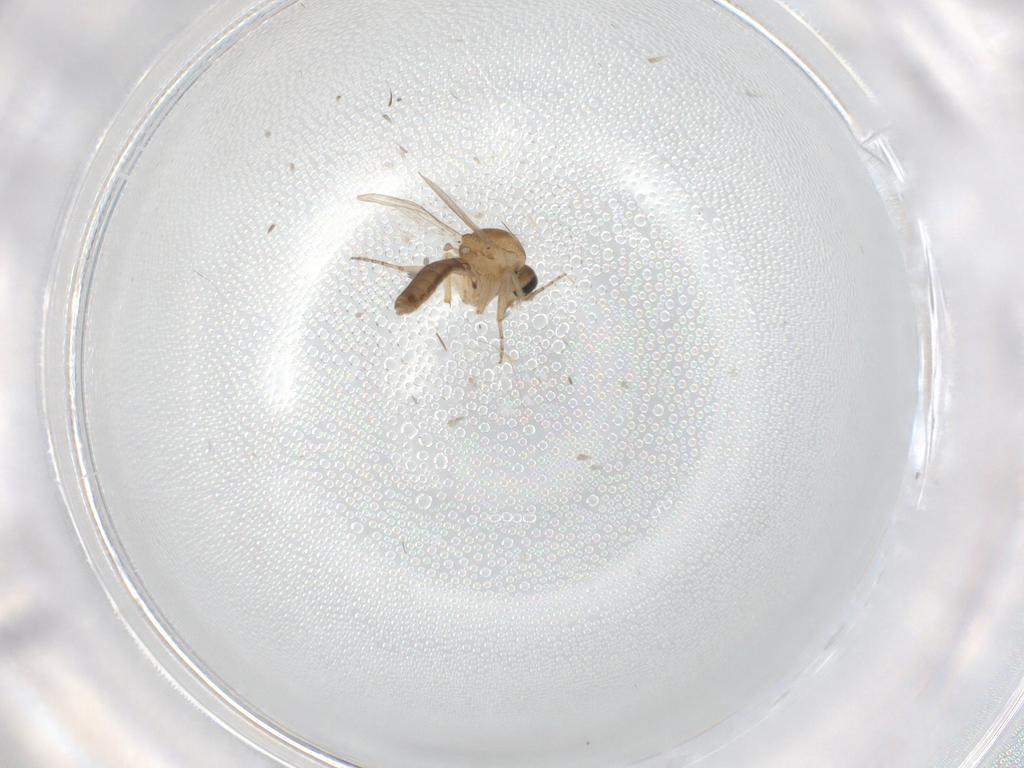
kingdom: Animalia
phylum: Arthropoda
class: Insecta
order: Diptera
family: Ceratopogonidae
